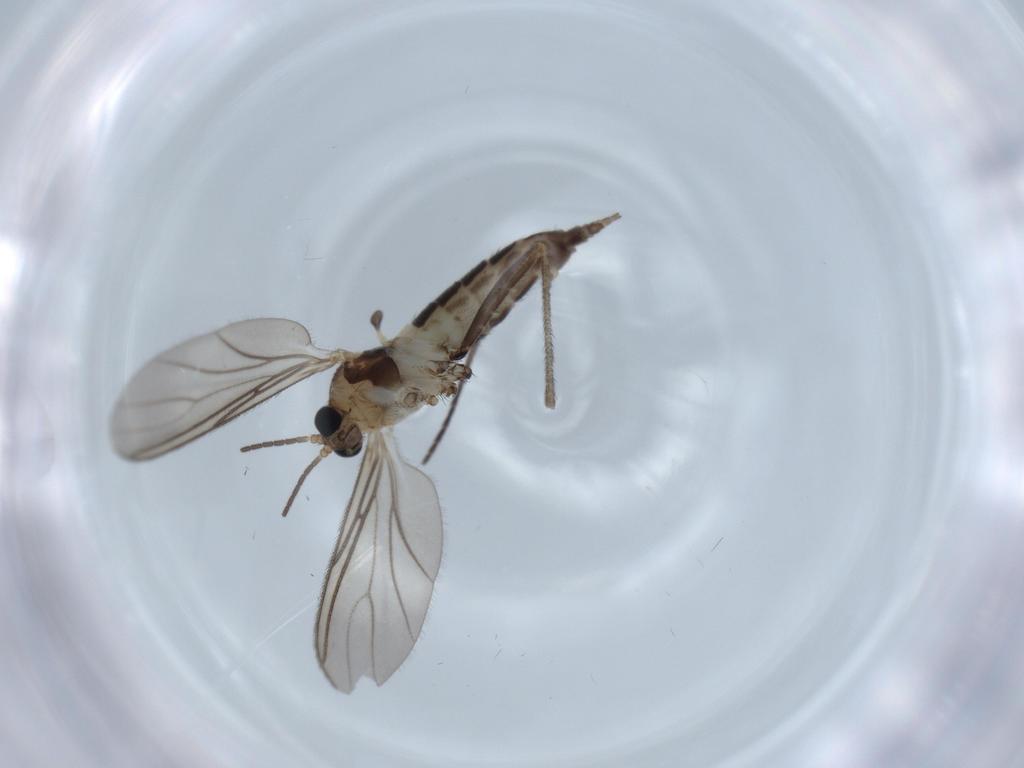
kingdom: Animalia
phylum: Arthropoda
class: Insecta
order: Diptera
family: Sciaridae
